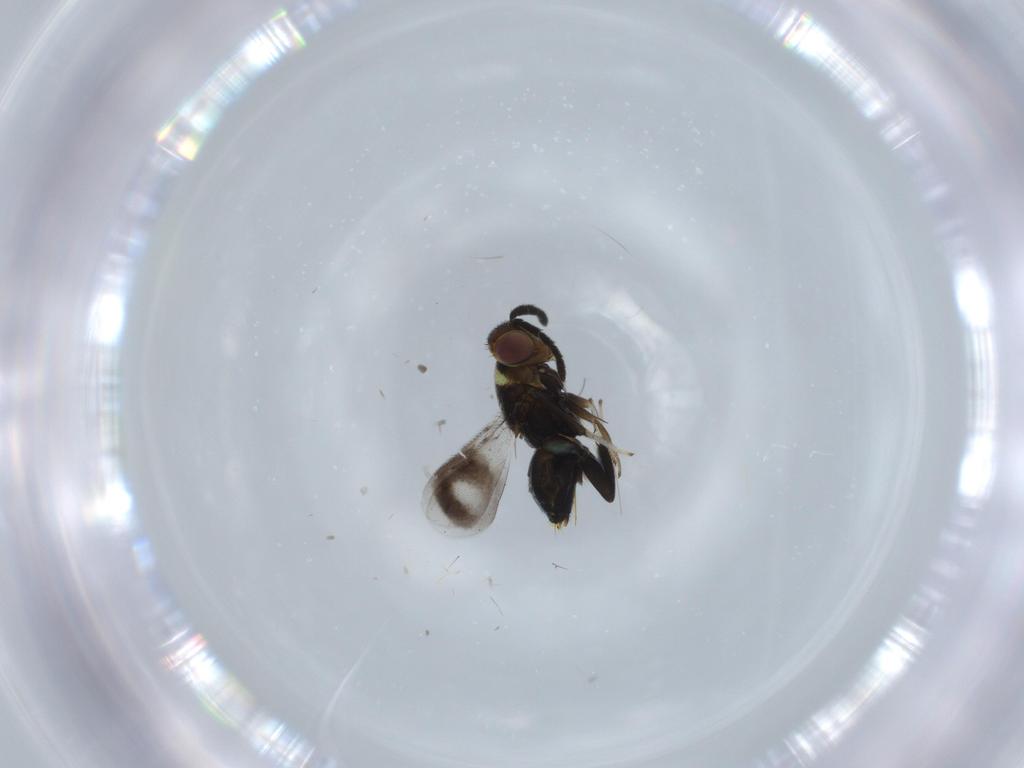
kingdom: Animalia
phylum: Arthropoda
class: Insecta
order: Hymenoptera
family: Aphelinidae
